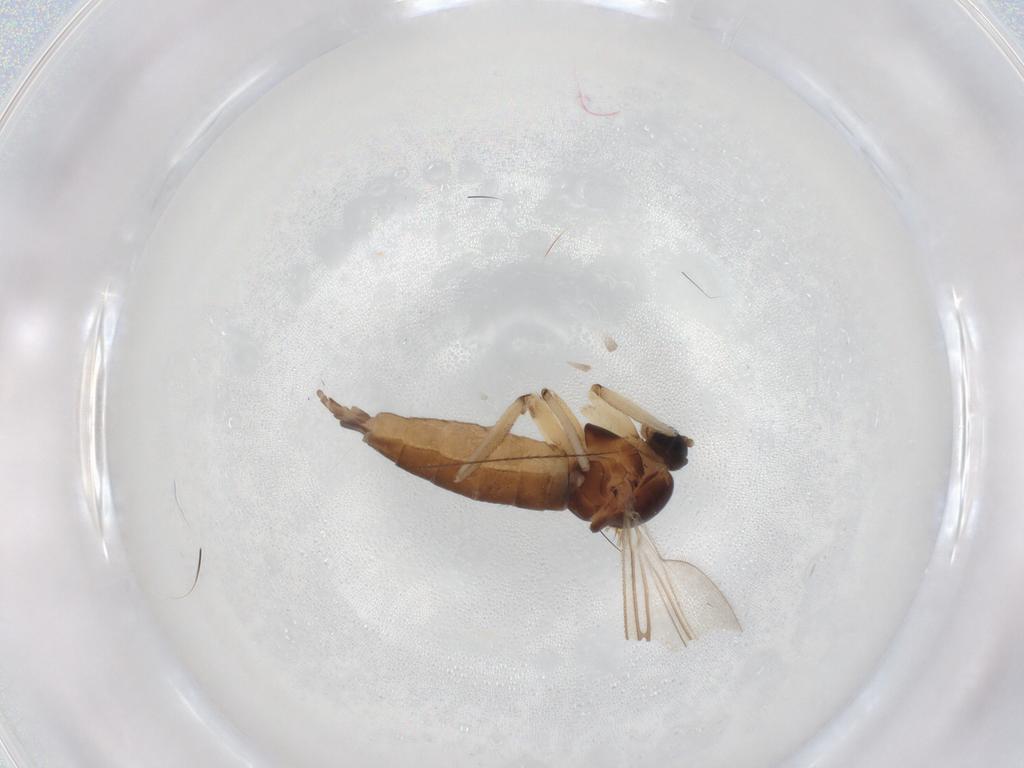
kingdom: Animalia
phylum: Arthropoda
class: Insecta
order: Diptera
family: Sciaridae
